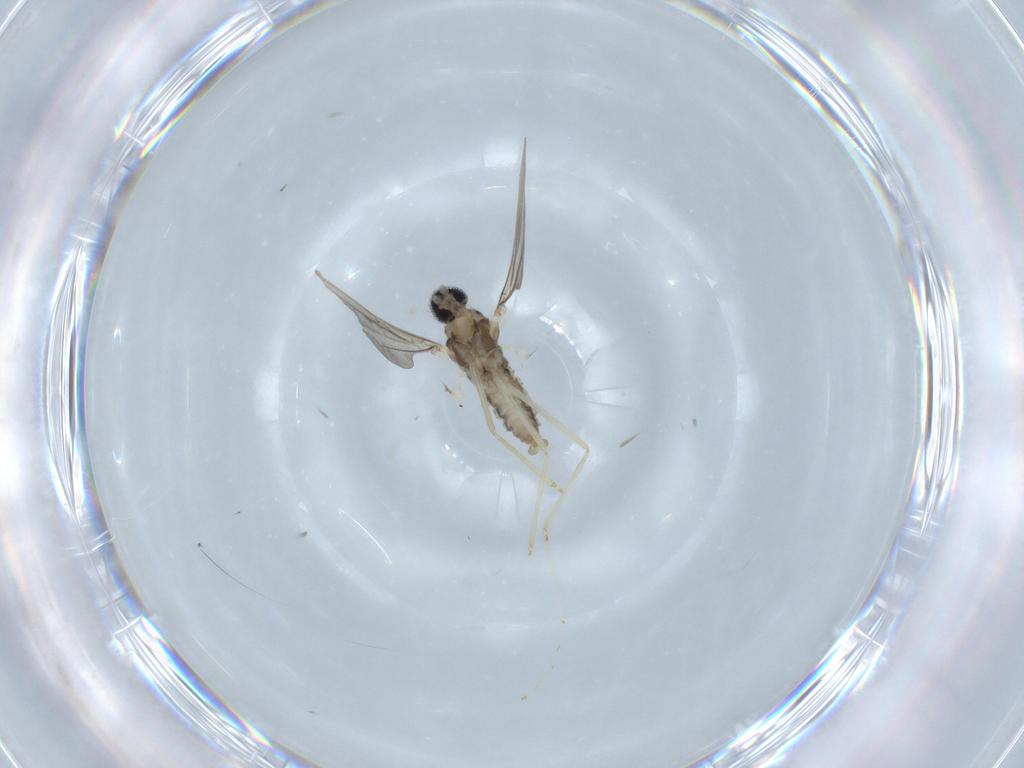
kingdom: Animalia
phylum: Arthropoda
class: Insecta
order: Diptera
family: Cecidomyiidae
